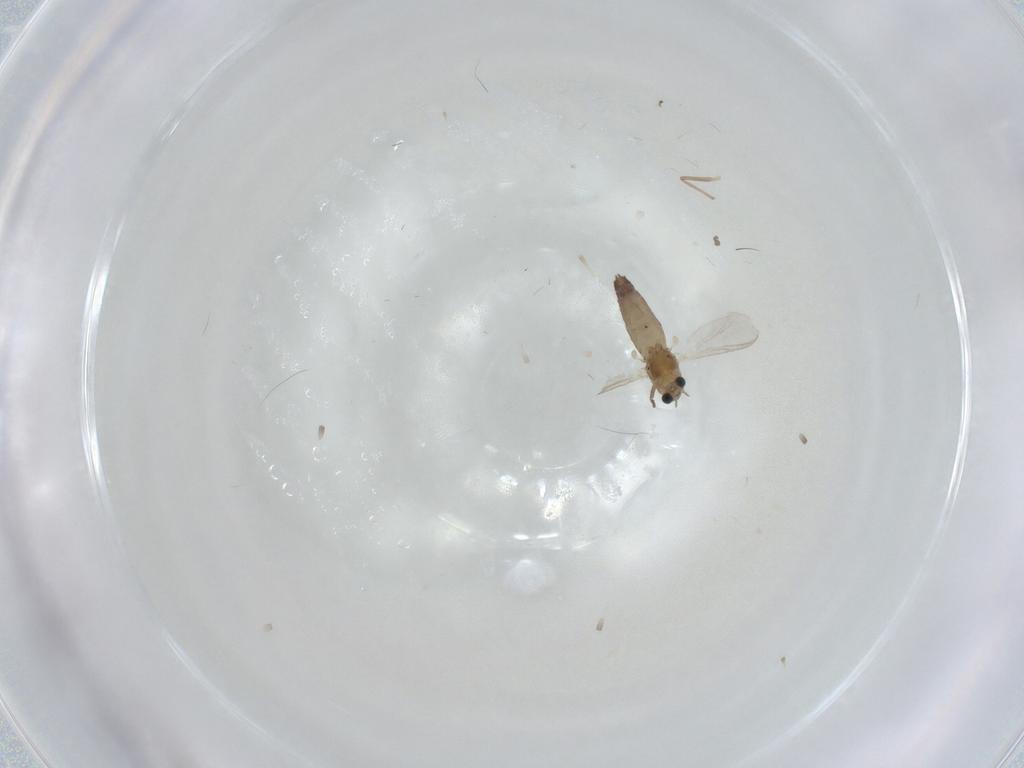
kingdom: Animalia
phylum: Arthropoda
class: Insecta
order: Diptera
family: Chironomidae
